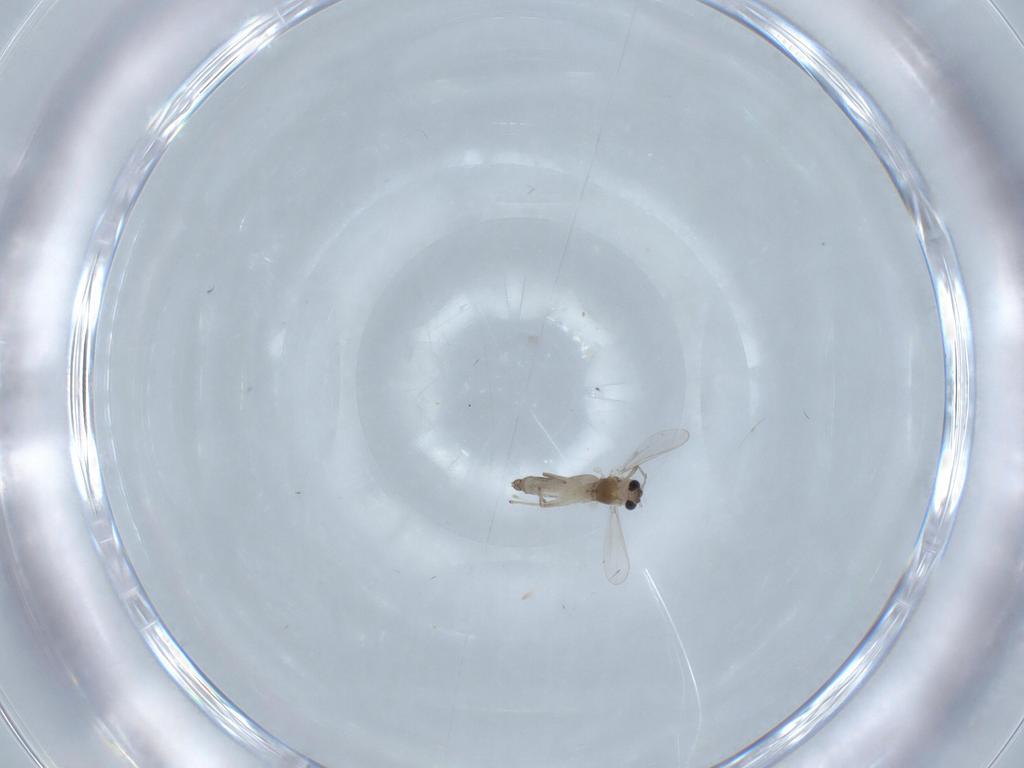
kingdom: Animalia
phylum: Arthropoda
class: Insecta
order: Diptera
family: Chironomidae
